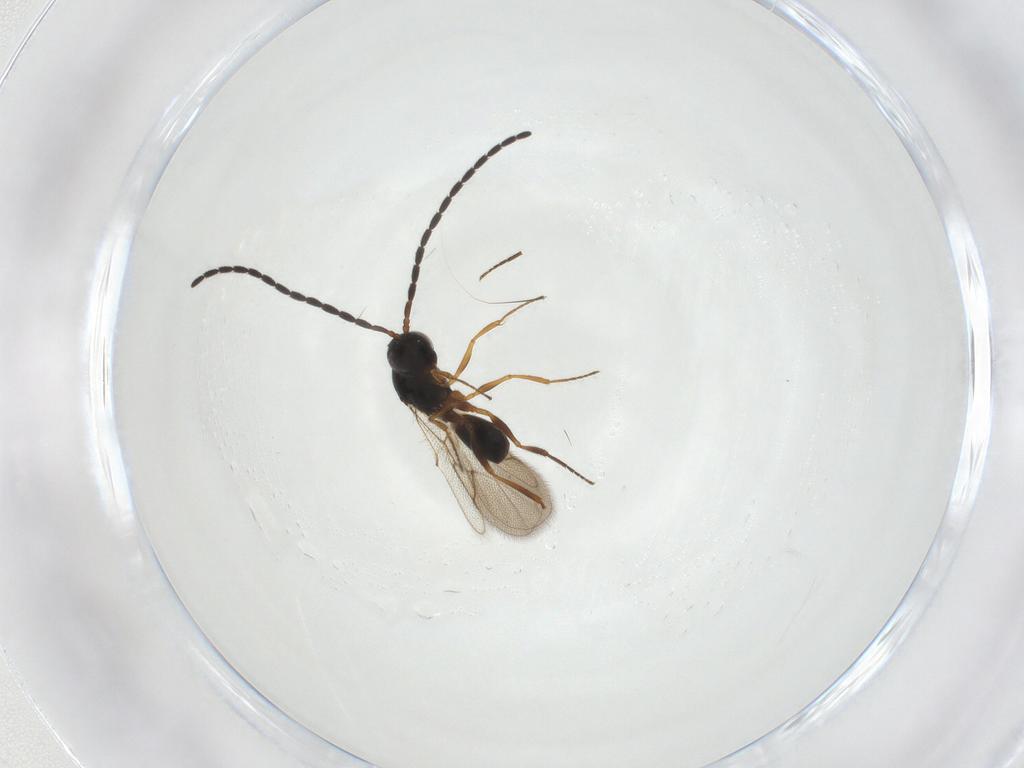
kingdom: Animalia
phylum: Arthropoda
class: Insecta
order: Hymenoptera
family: Figitidae
